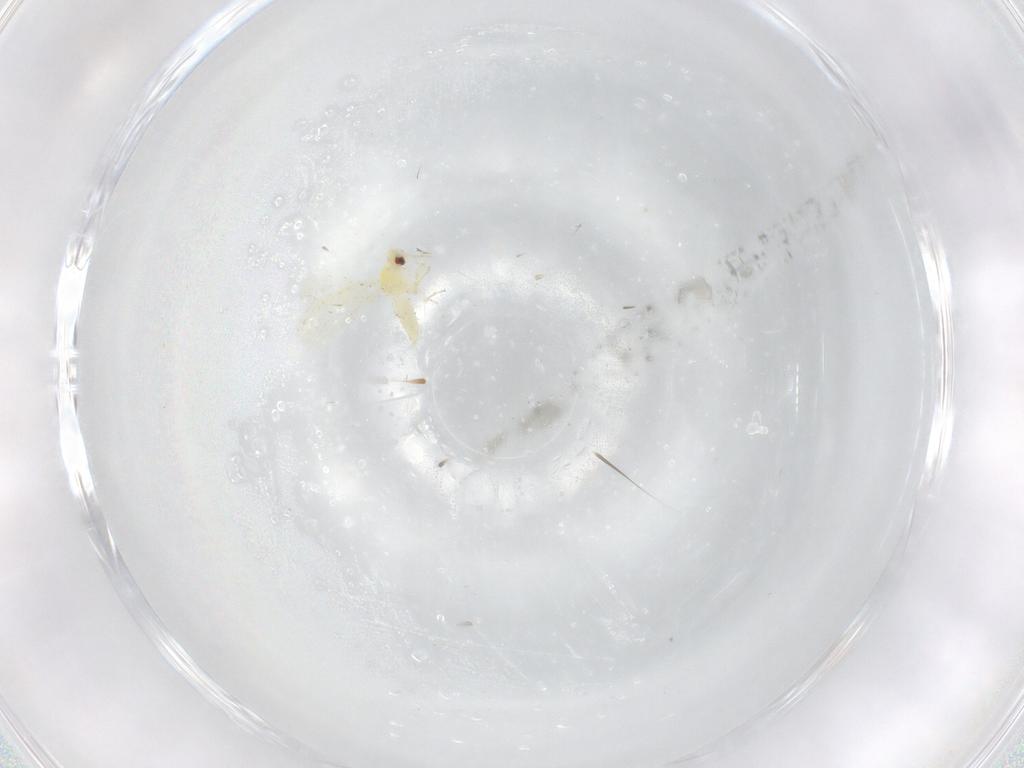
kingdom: Animalia
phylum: Arthropoda
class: Insecta
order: Hemiptera
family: Aleyrodidae
